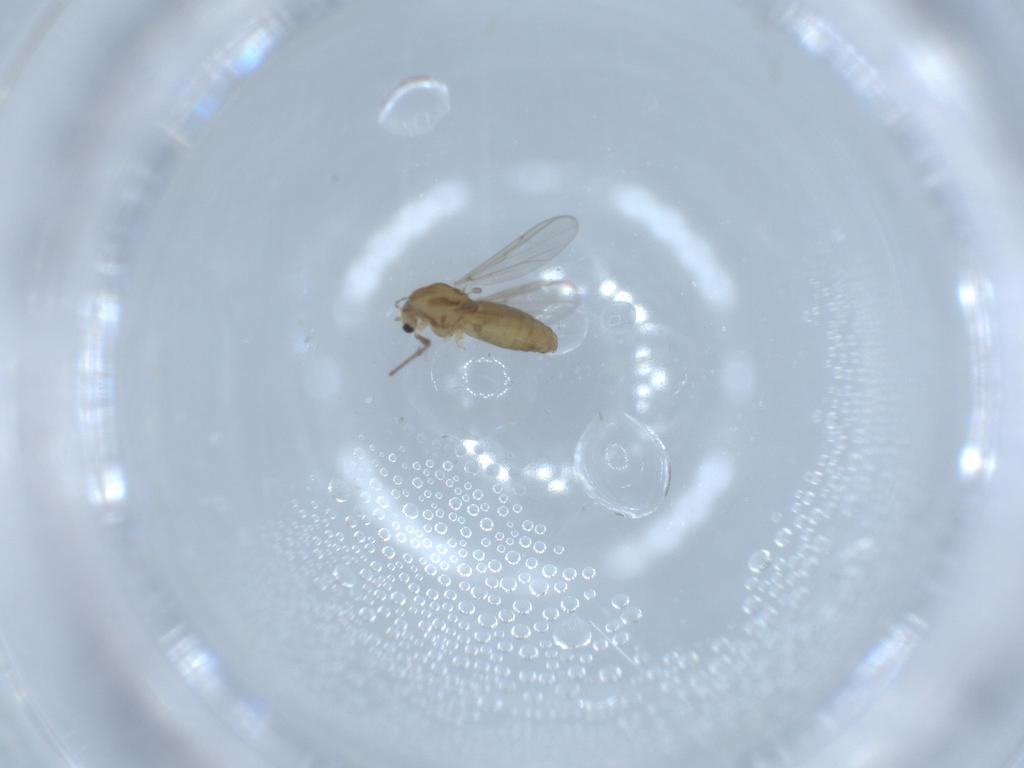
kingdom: Animalia
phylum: Arthropoda
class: Insecta
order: Diptera
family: Chironomidae
